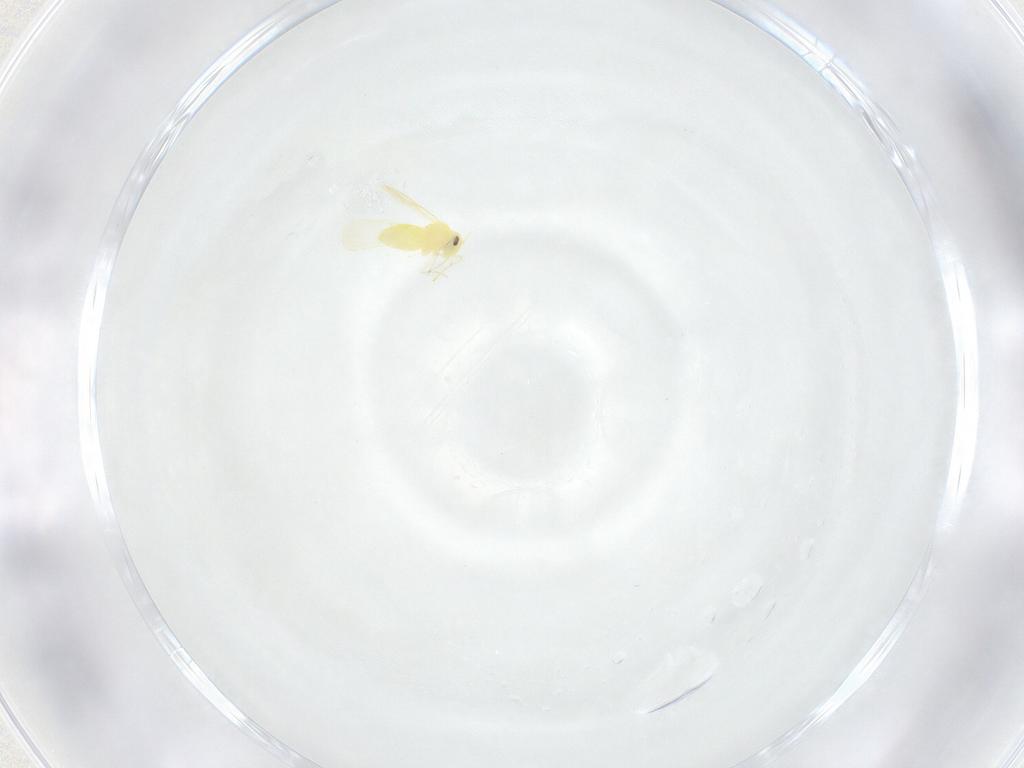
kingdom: Animalia
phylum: Arthropoda
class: Insecta
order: Hemiptera
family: Aleyrodidae
